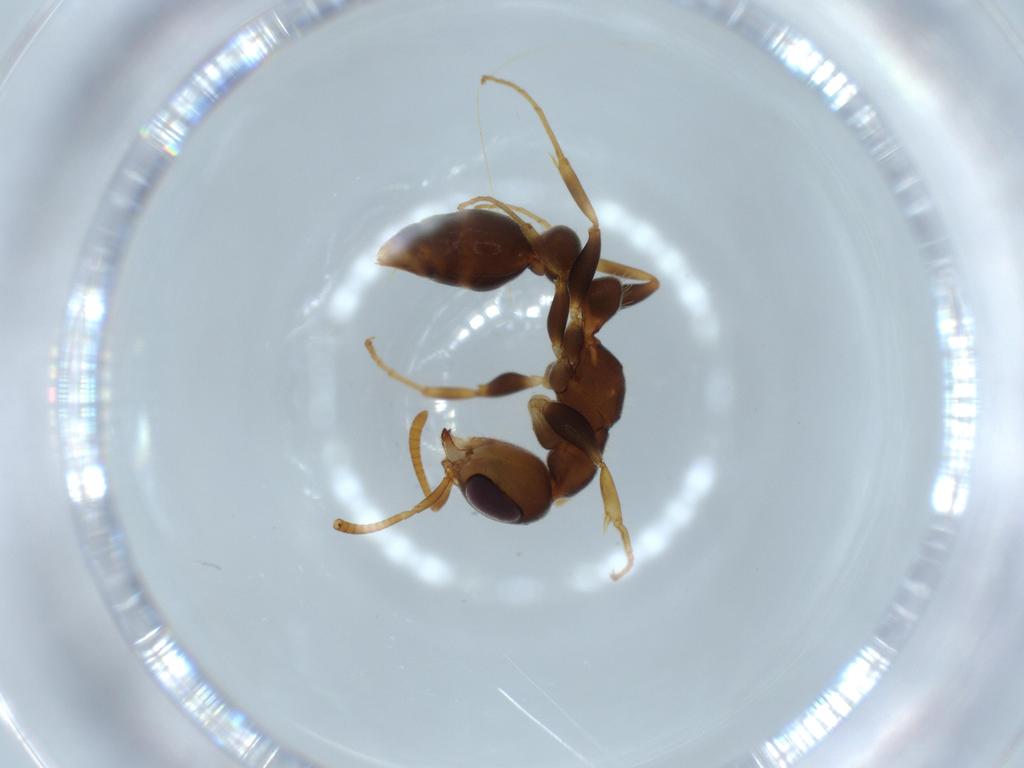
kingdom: Animalia
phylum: Arthropoda
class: Insecta
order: Hymenoptera
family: Formicidae
